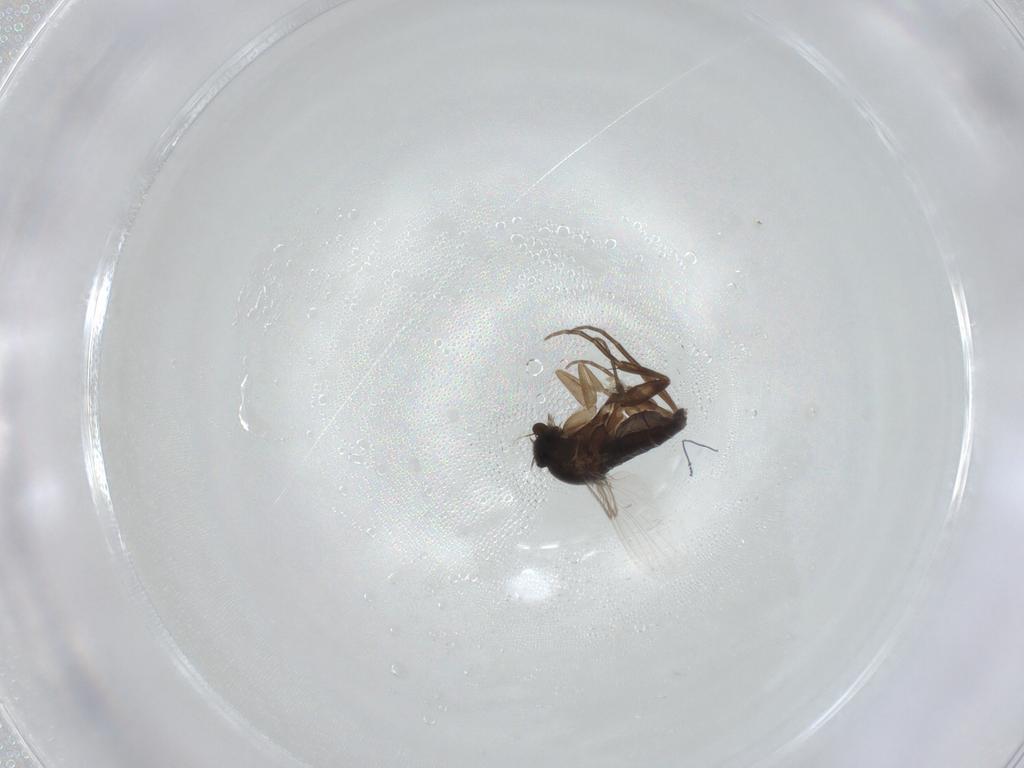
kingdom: Animalia
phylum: Arthropoda
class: Insecta
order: Diptera
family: Phoridae
